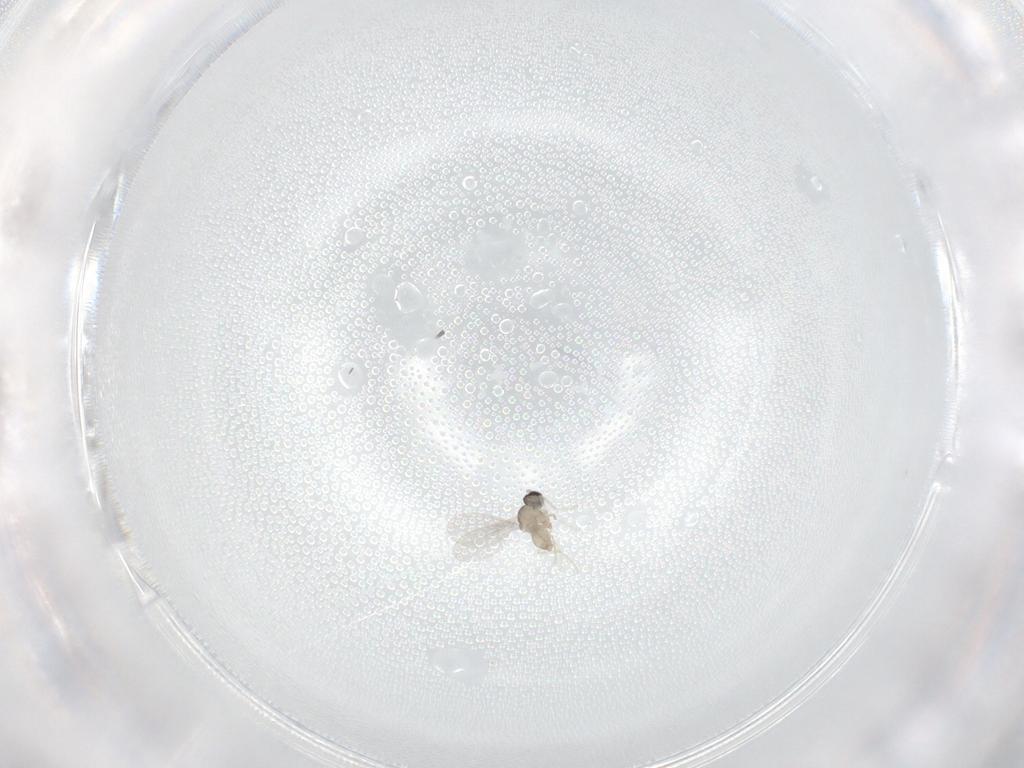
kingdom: Animalia
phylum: Arthropoda
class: Insecta
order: Diptera
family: Cecidomyiidae
